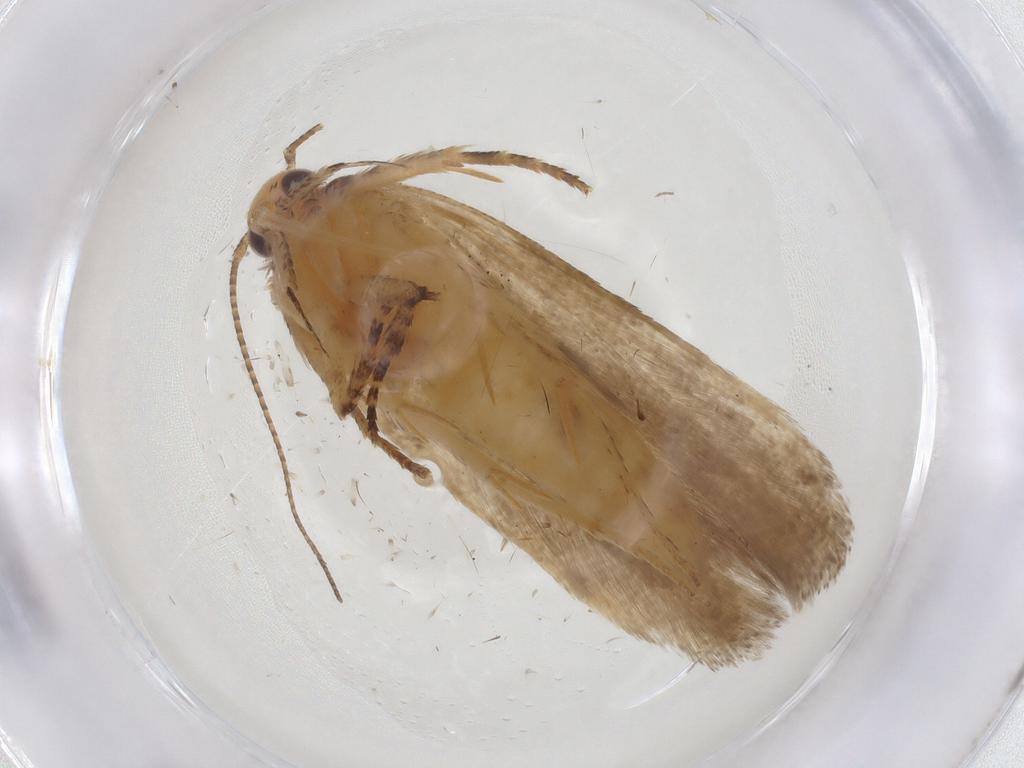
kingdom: Animalia
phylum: Arthropoda
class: Insecta
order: Lepidoptera
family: Gelechiidae
